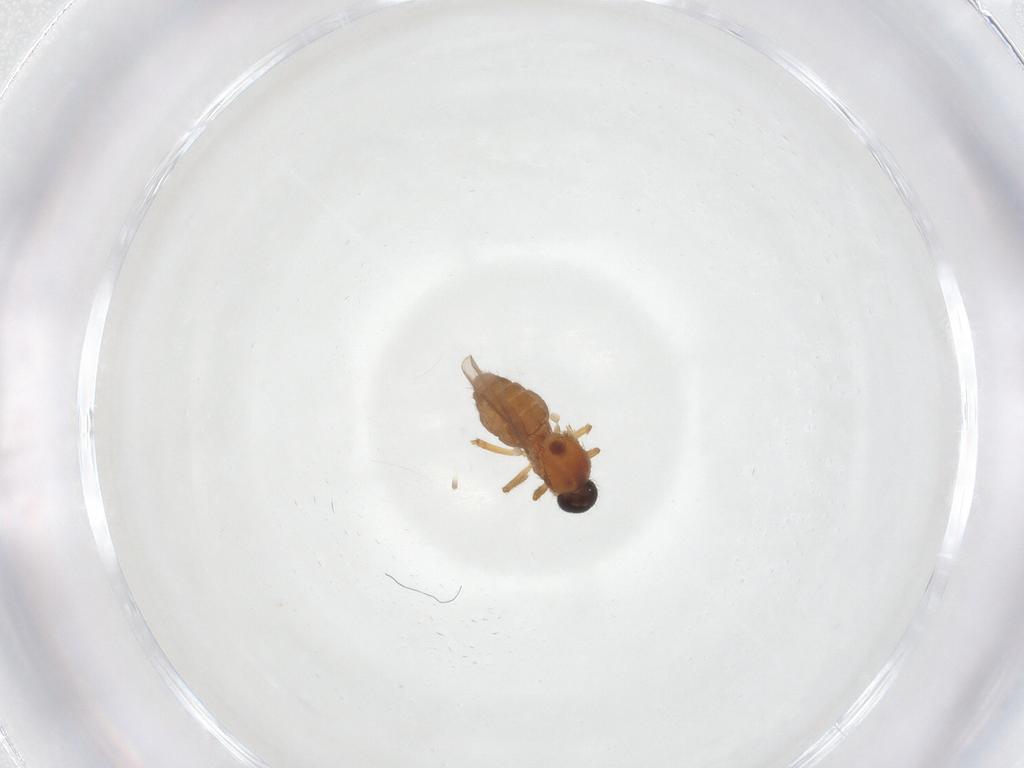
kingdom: Animalia
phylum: Arthropoda
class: Insecta
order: Diptera
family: Ceratopogonidae
